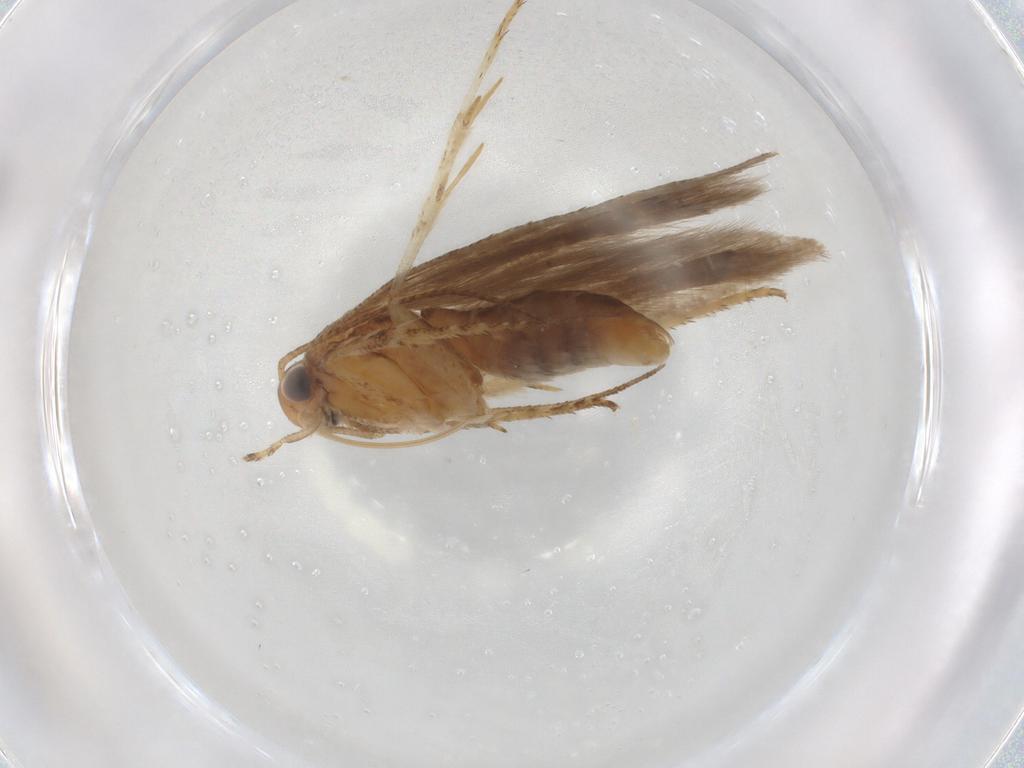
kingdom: Animalia
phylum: Arthropoda
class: Insecta
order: Lepidoptera
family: Gelechiidae
